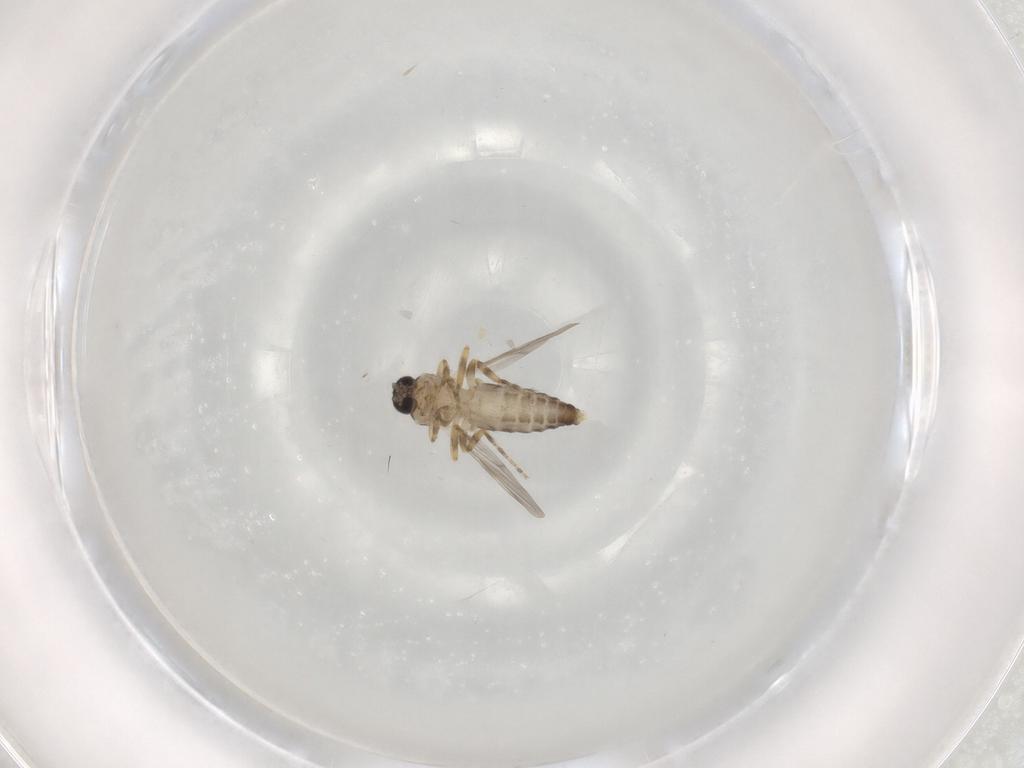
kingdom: Animalia
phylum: Arthropoda
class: Insecta
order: Diptera
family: Ceratopogonidae
